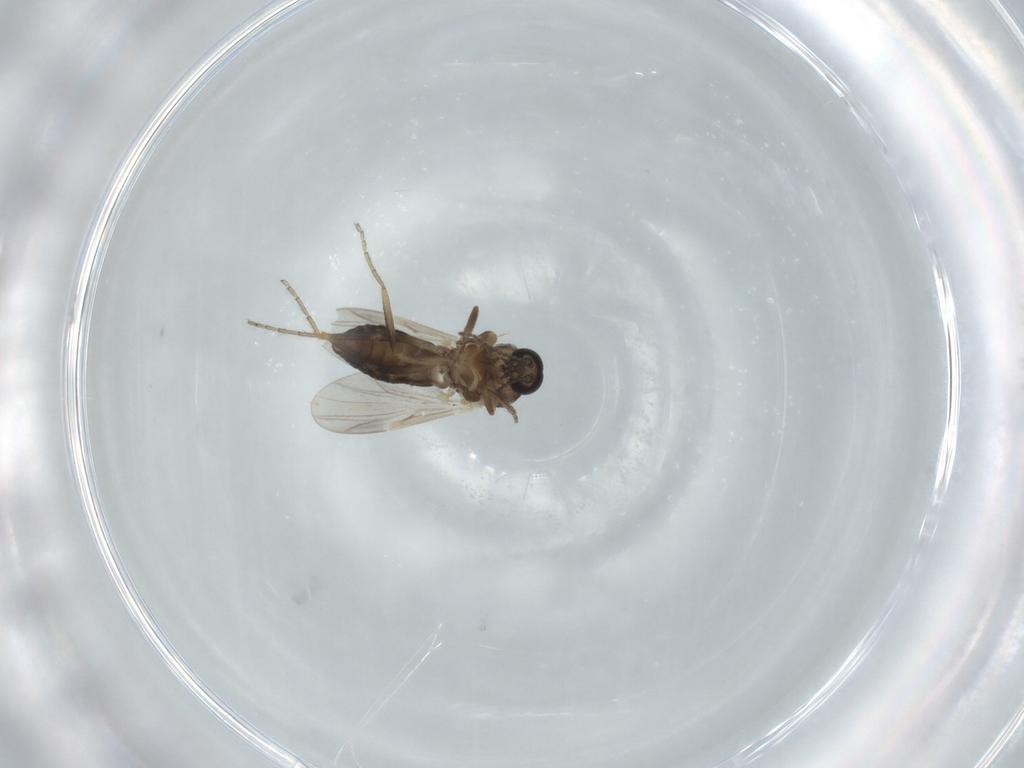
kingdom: Animalia
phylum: Arthropoda
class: Insecta
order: Diptera
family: Ceratopogonidae
